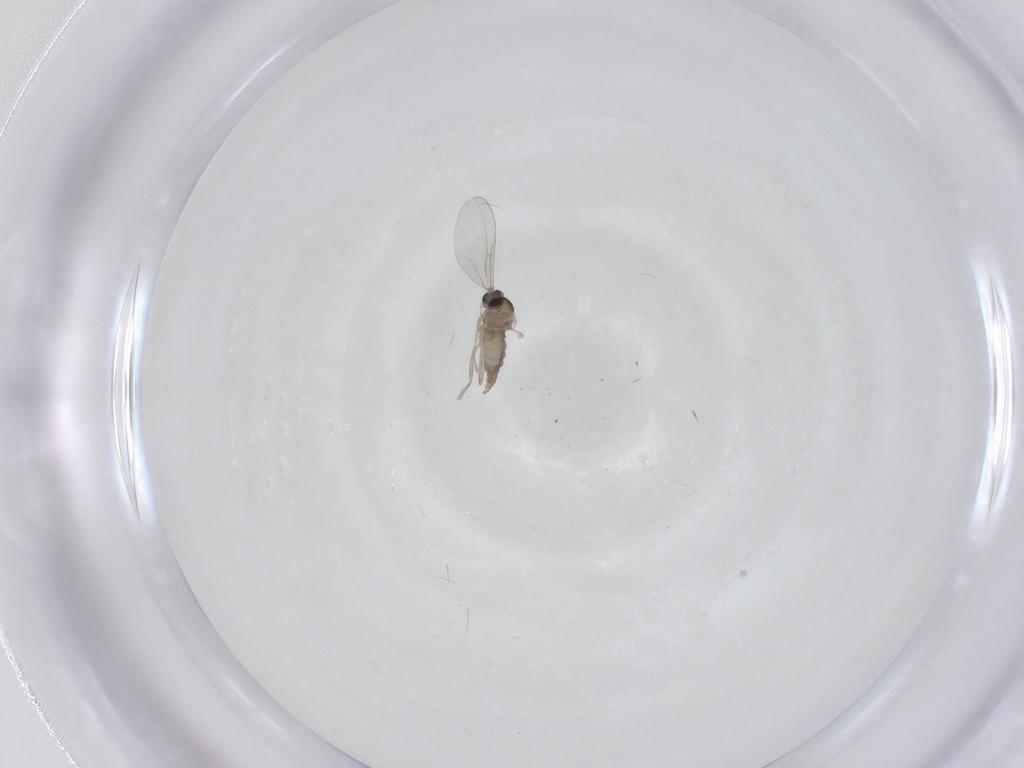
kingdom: Animalia
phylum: Arthropoda
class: Insecta
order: Diptera
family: Cecidomyiidae
